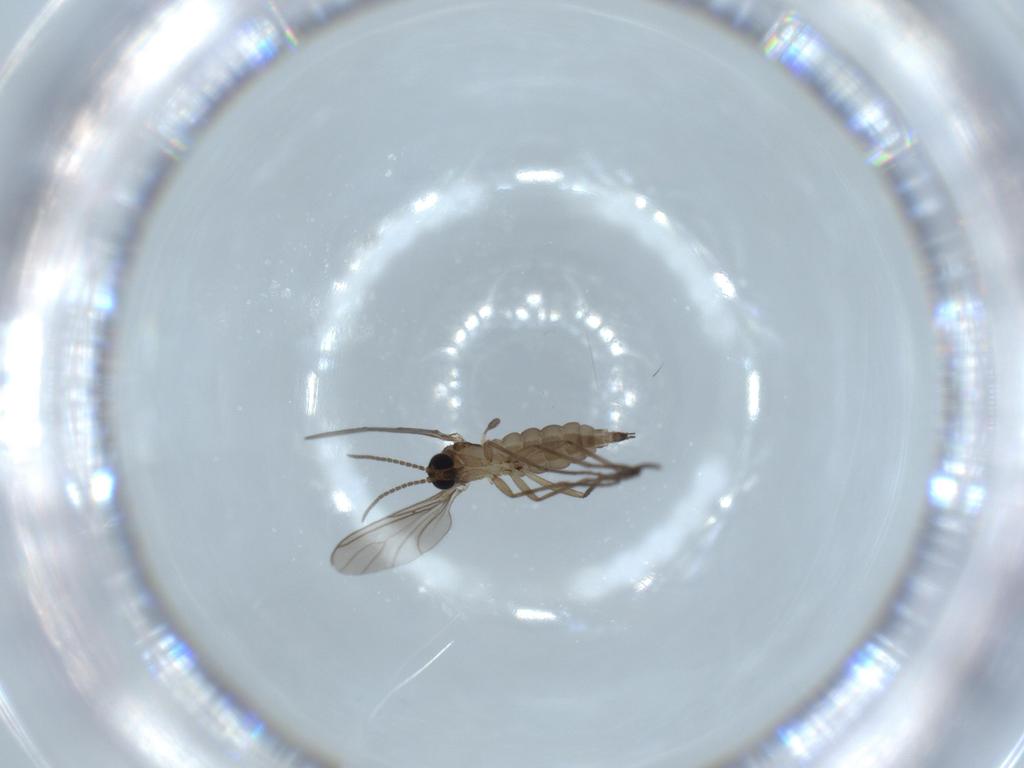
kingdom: Animalia
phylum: Arthropoda
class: Insecta
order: Diptera
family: Sciaridae
